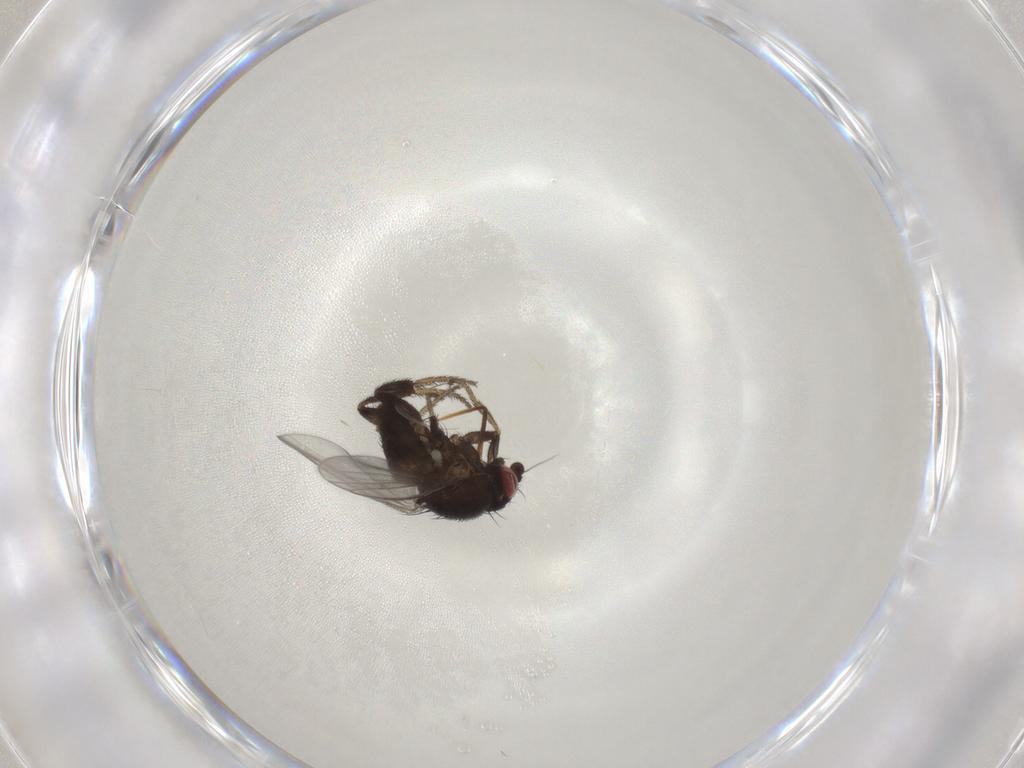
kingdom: Animalia
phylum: Arthropoda
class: Insecta
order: Diptera
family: Milichiidae
